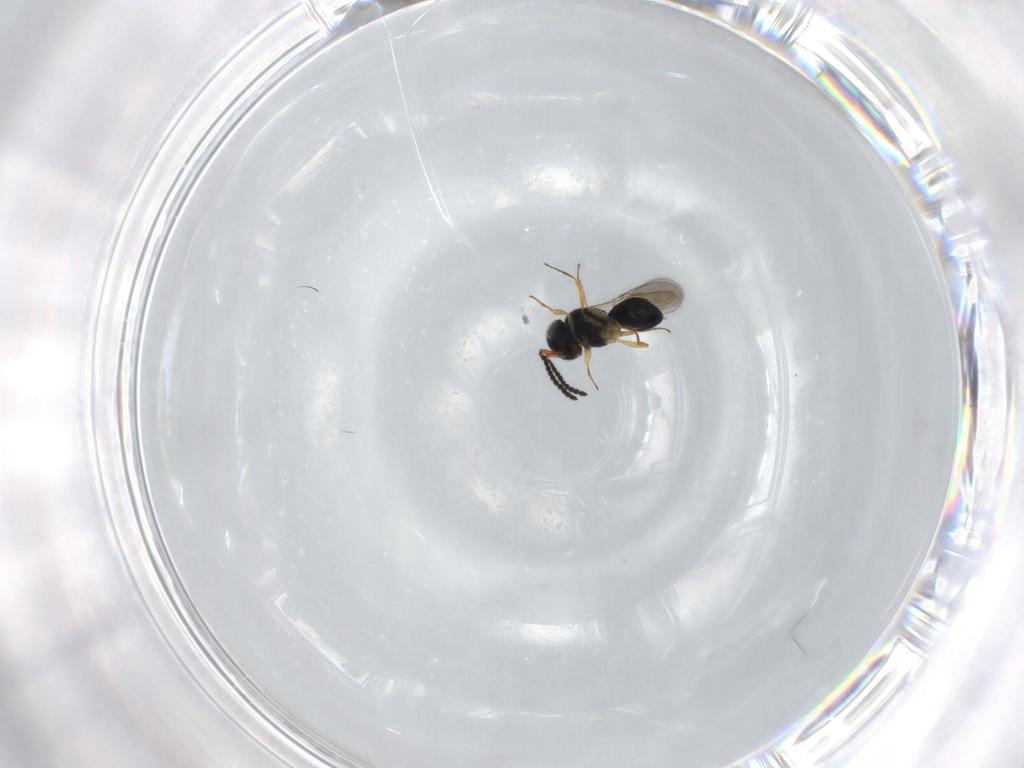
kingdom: Animalia
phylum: Arthropoda
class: Insecta
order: Hymenoptera
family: Scelionidae
